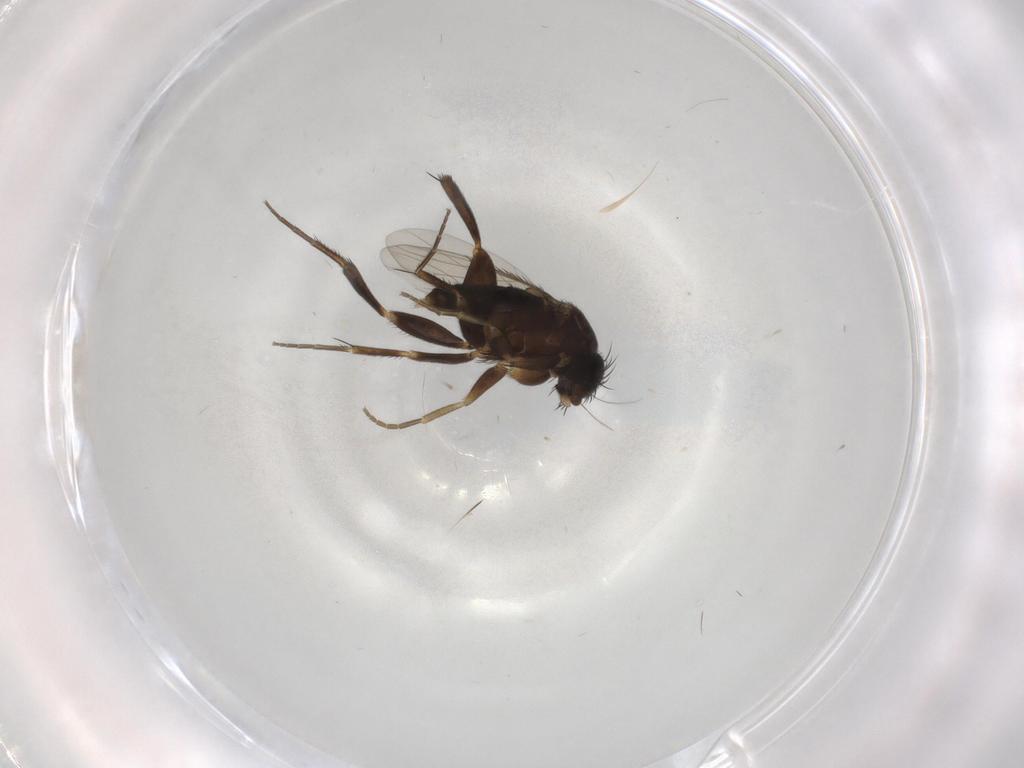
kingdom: Animalia
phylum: Arthropoda
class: Insecta
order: Diptera
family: Phoridae
